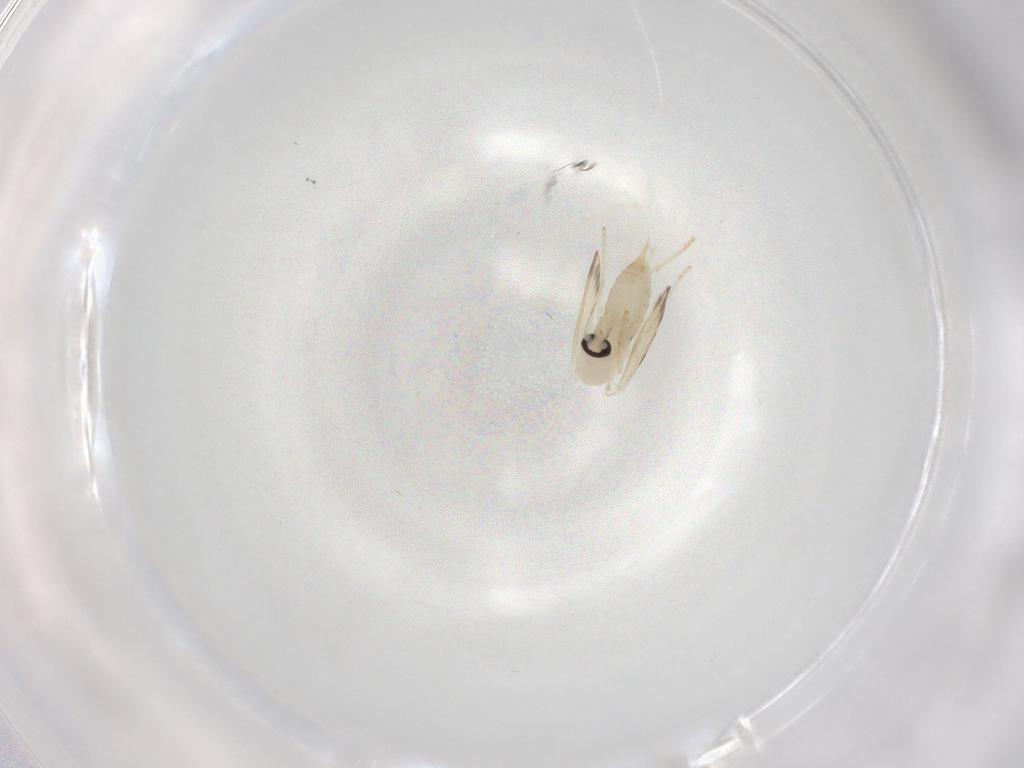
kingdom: Animalia
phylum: Arthropoda
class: Insecta
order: Diptera
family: Psychodidae
